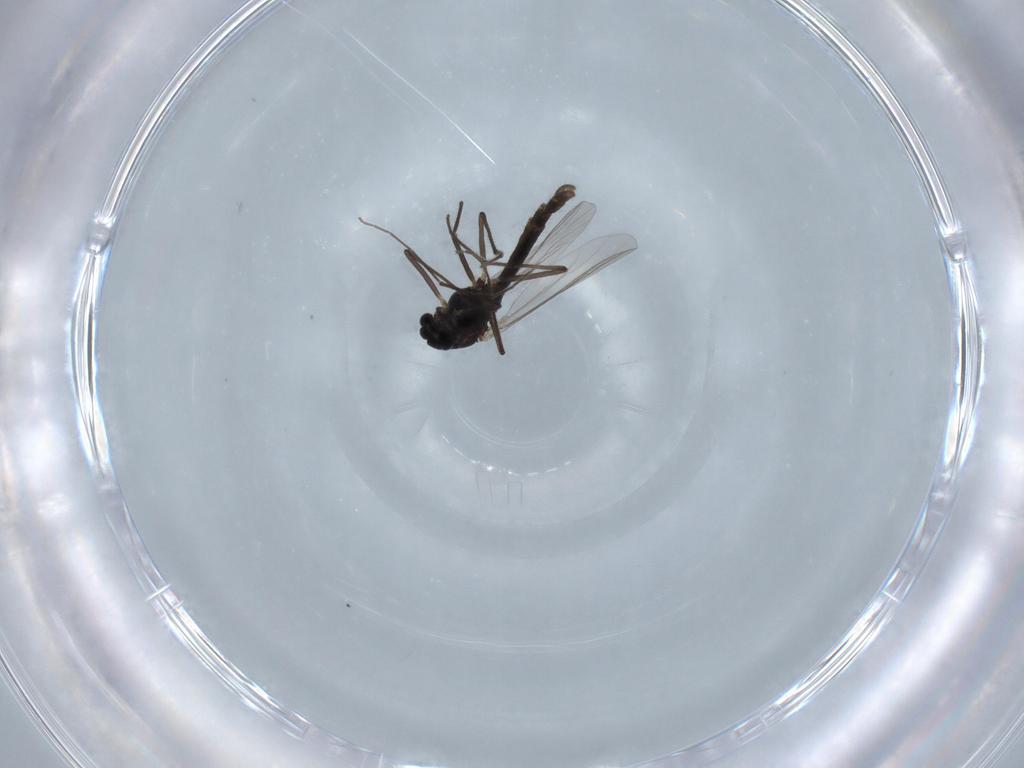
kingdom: Animalia
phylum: Arthropoda
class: Insecta
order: Diptera
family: Chironomidae
